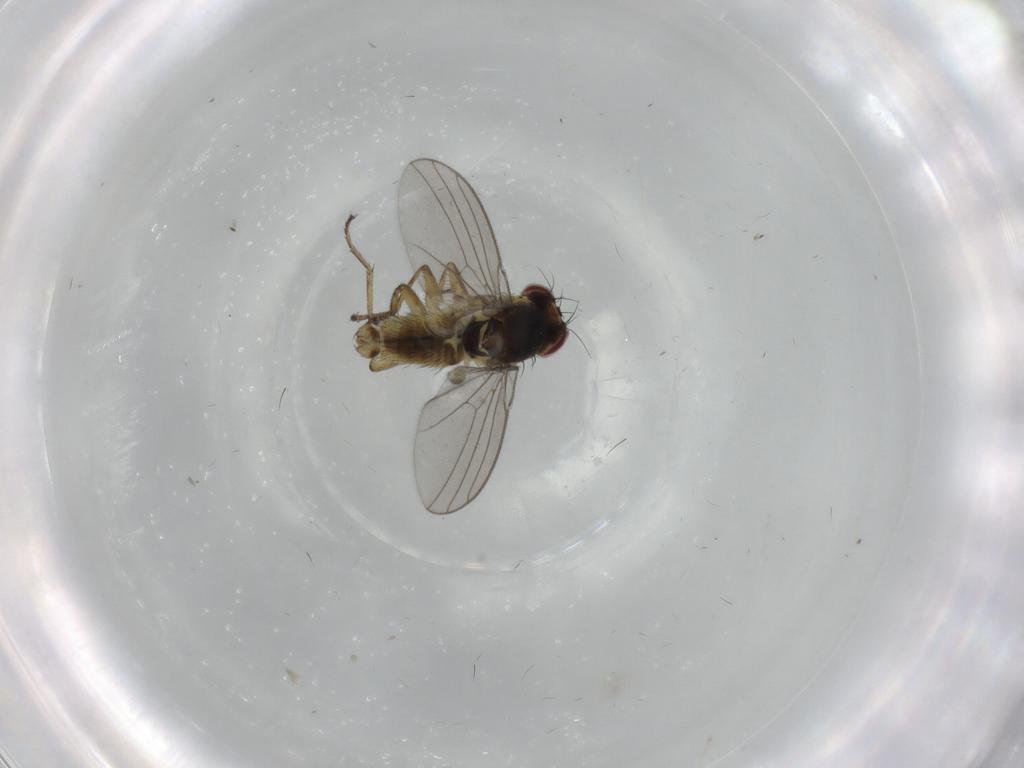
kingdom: Animalia
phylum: Arthropoda
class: Insecta
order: Diptera
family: Agromyzidae
